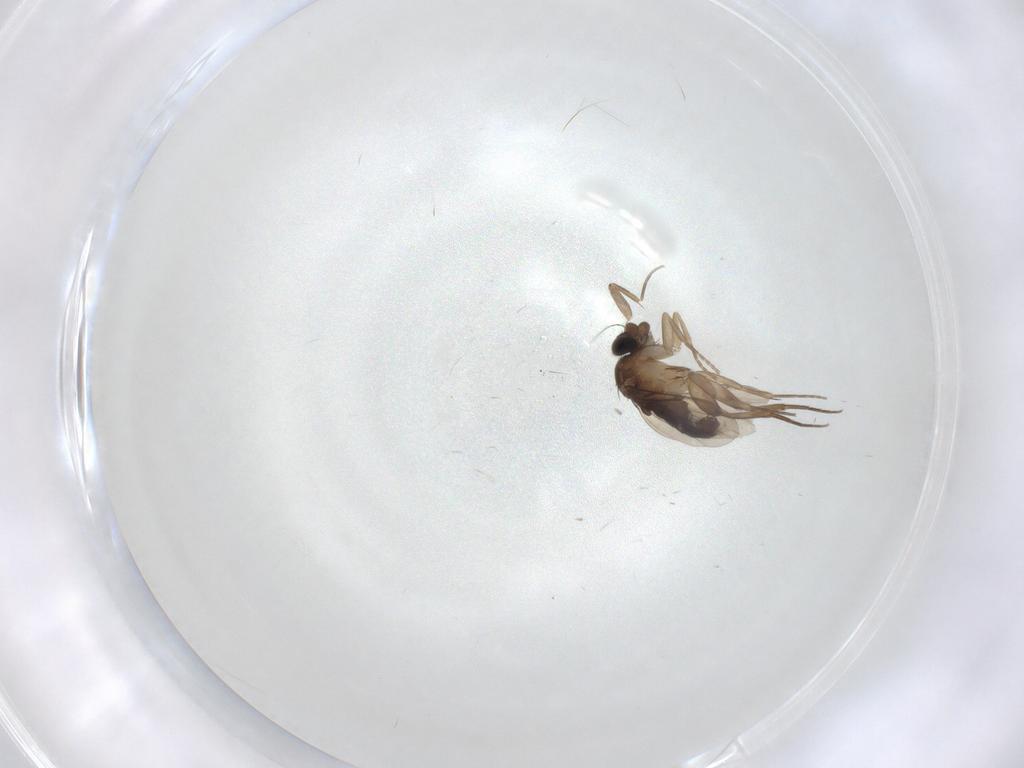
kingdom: Animalia
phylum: Arthropoda
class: Insecta
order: Diptera
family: Phoridae
